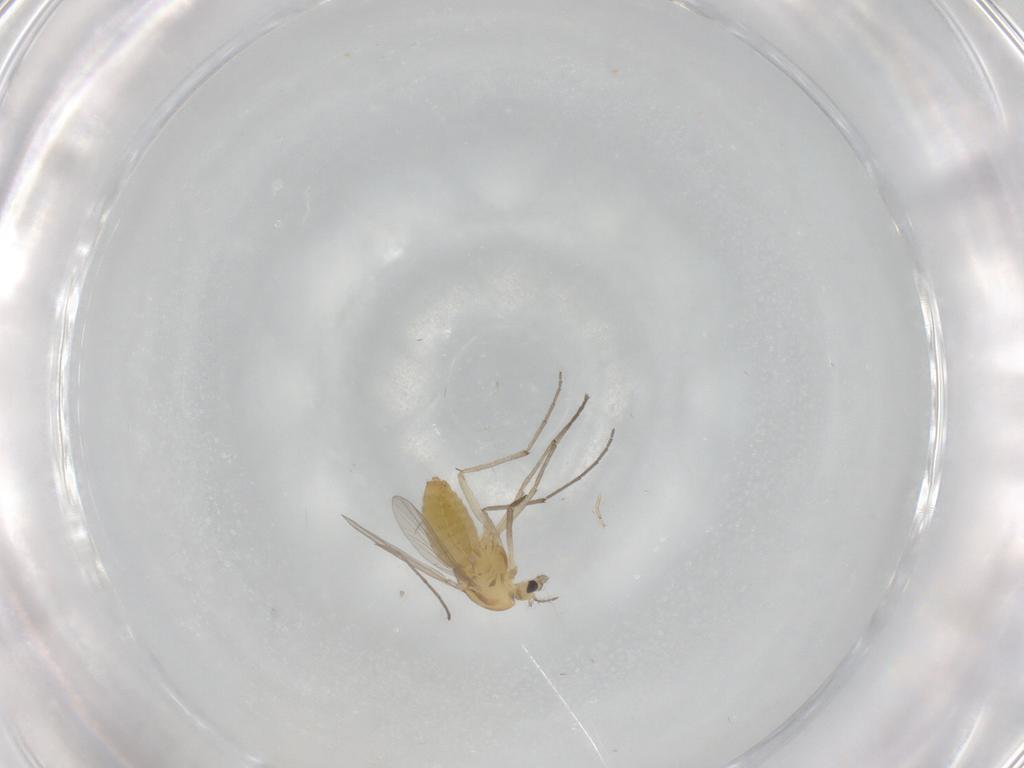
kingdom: Animalia
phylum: Arthropoda
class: Insecta
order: Diptera
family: Chironomidae
